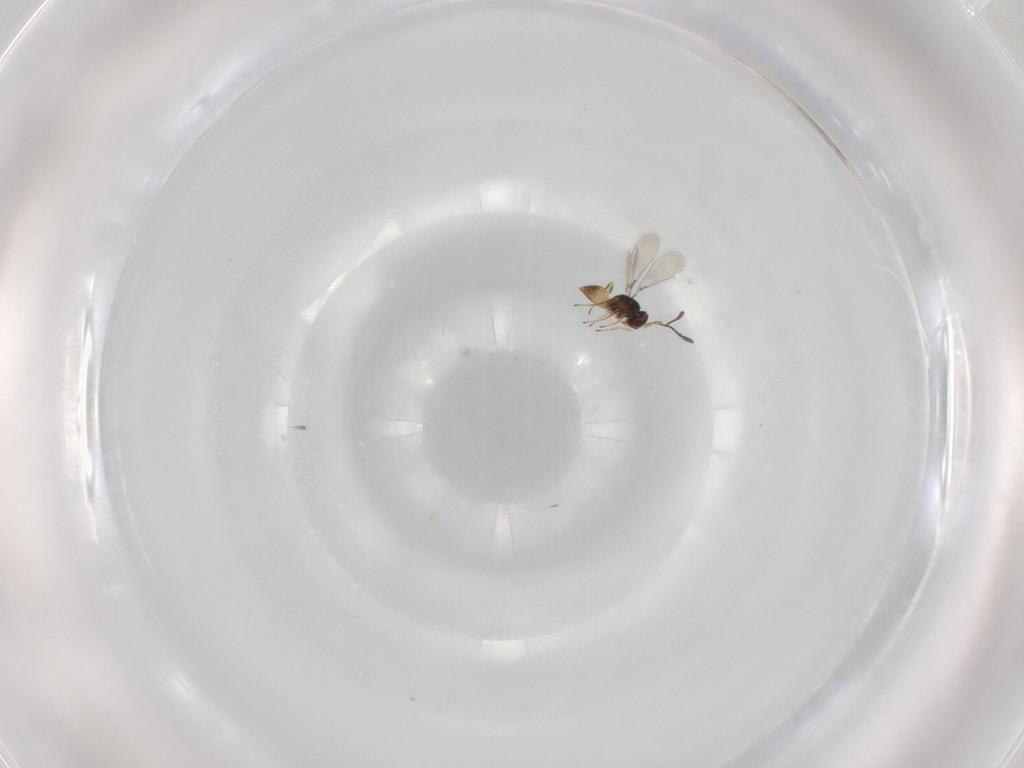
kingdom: Animalia
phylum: Arthropoda
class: Insecta
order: Hymenoptera
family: Mymaridae
